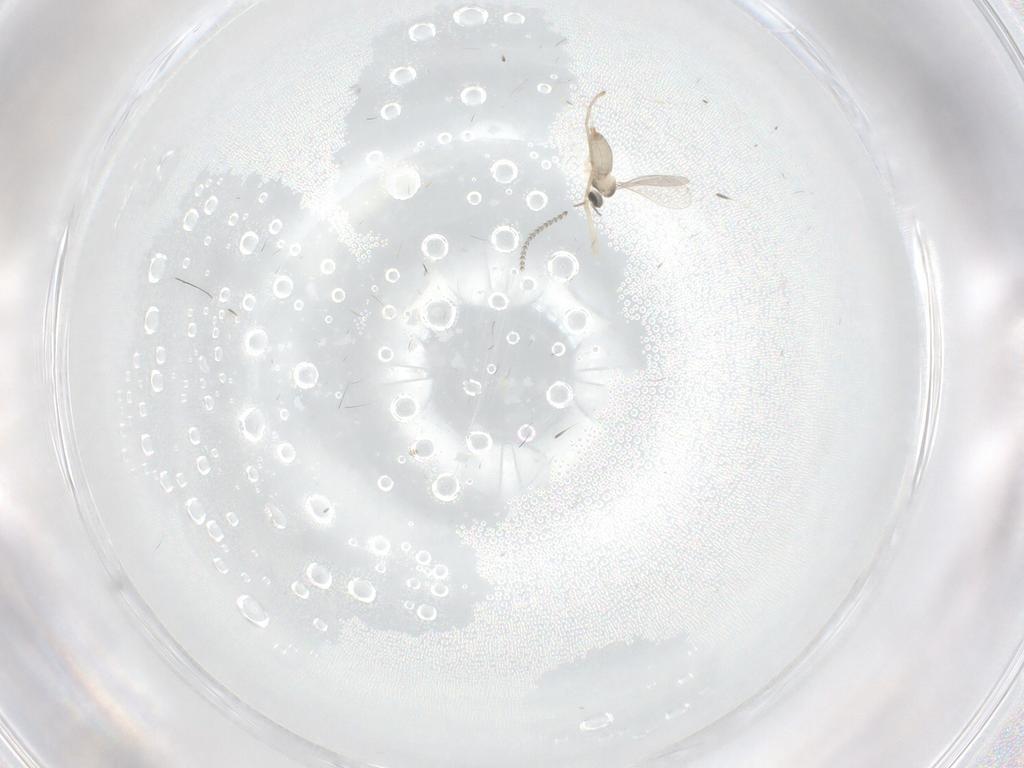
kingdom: Animalia
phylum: Arthropoda
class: Insecta
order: Diptera
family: Cecidomyiidae
